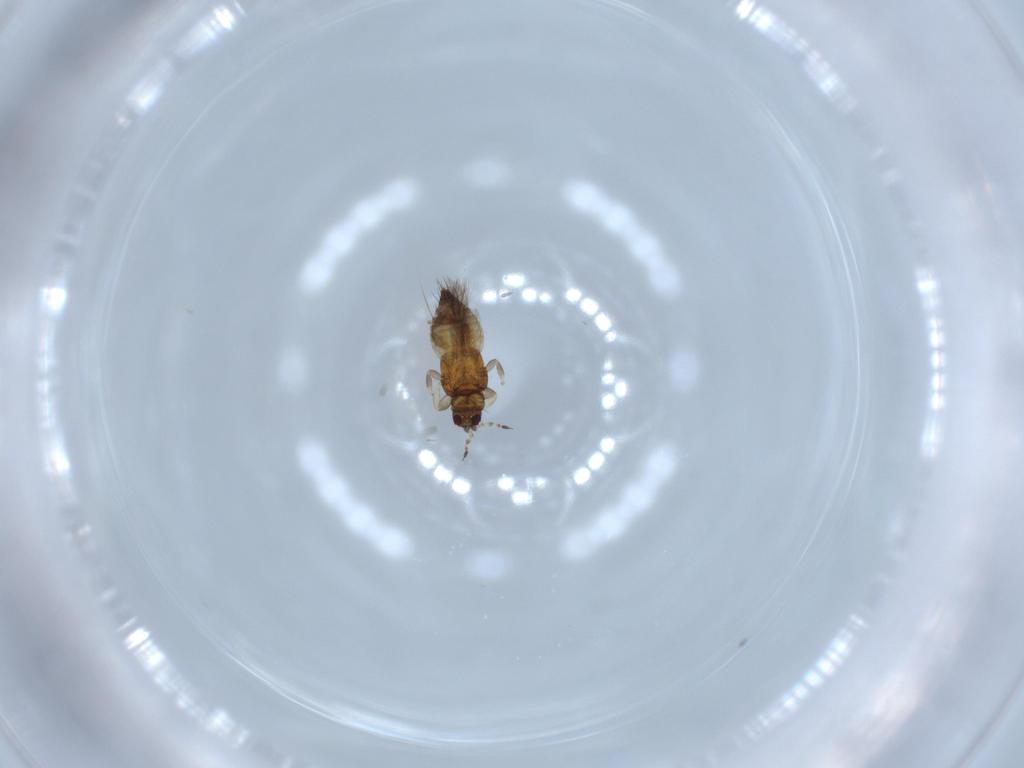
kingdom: Animalia
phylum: Arthropoda
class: Insecta
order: Thysanoptera
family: Thripidae
